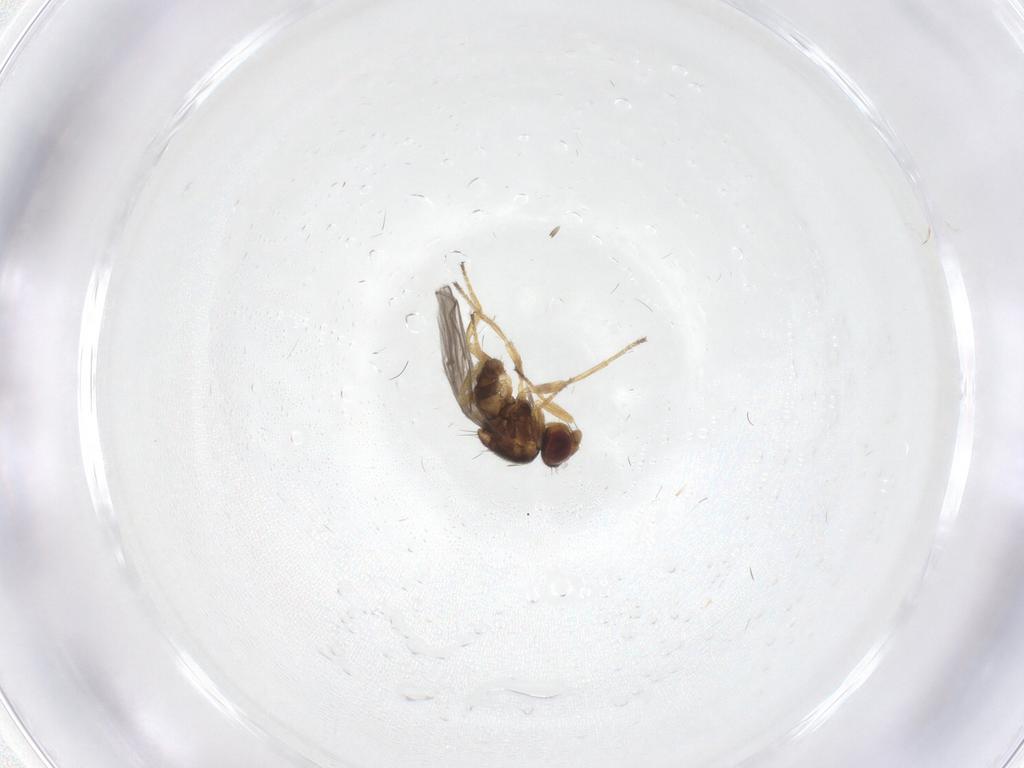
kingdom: Animalia
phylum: Arthropoda
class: Insecta
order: Diptera
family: Chloropidae
